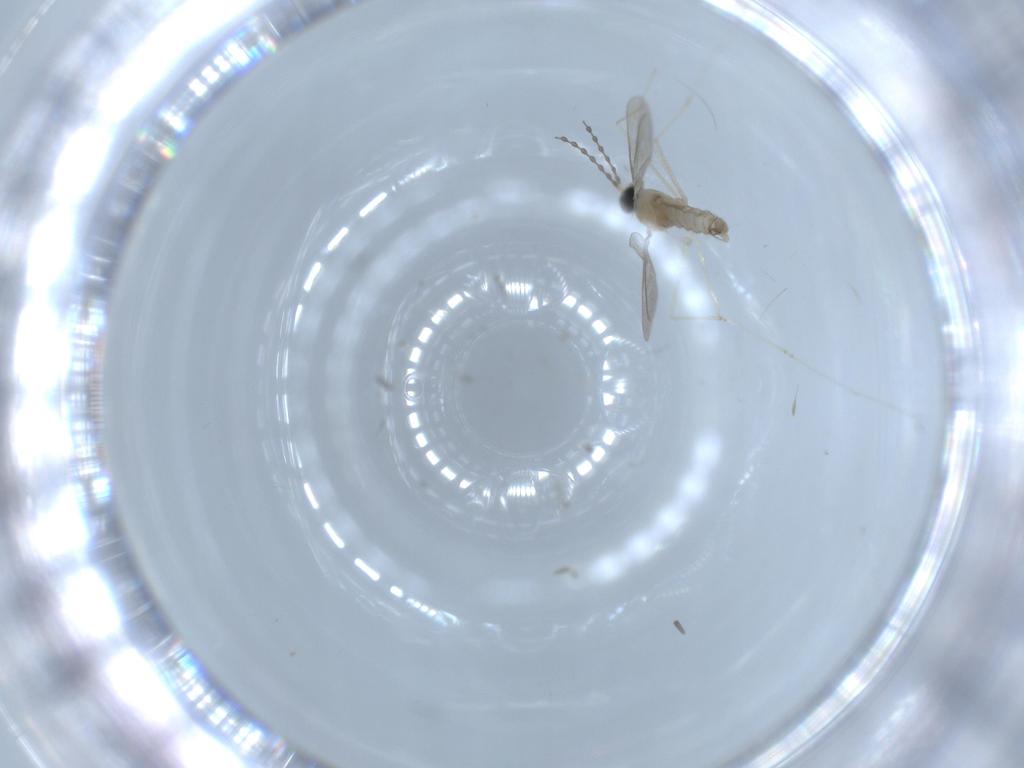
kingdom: Animalia
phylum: Arthropoda
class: Insecta
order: Diptera
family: Cecidomyiidae
